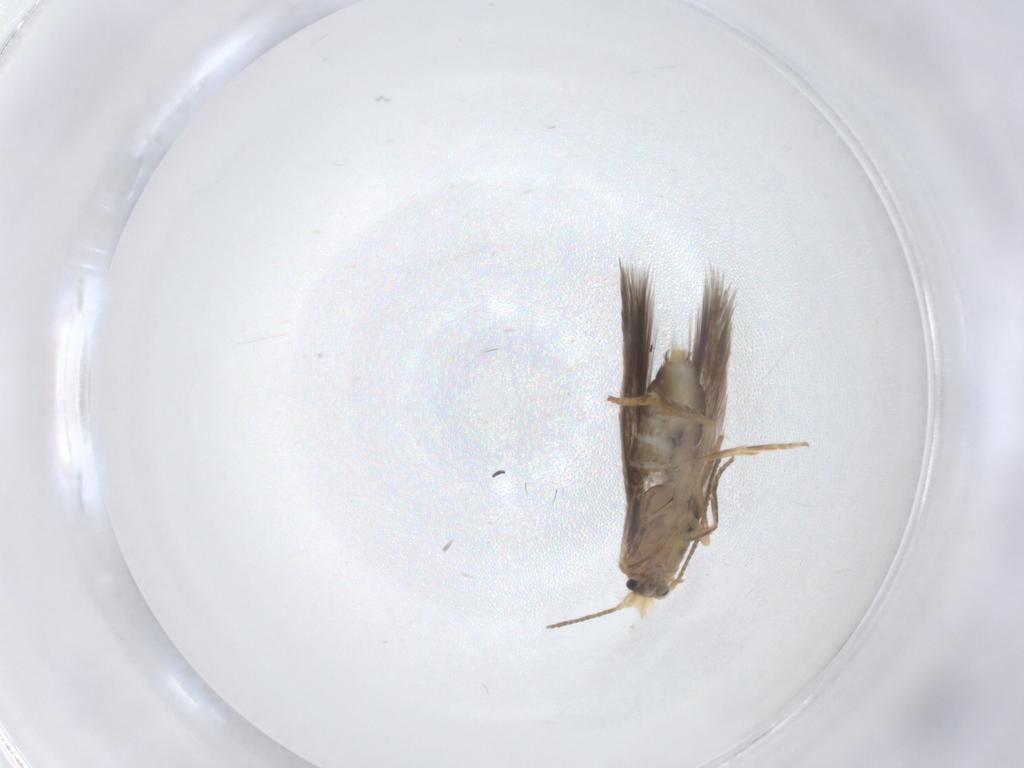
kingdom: Animalia
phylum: Arthropoda
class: Insecta
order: Lepidoptera
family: Nepticulidae
